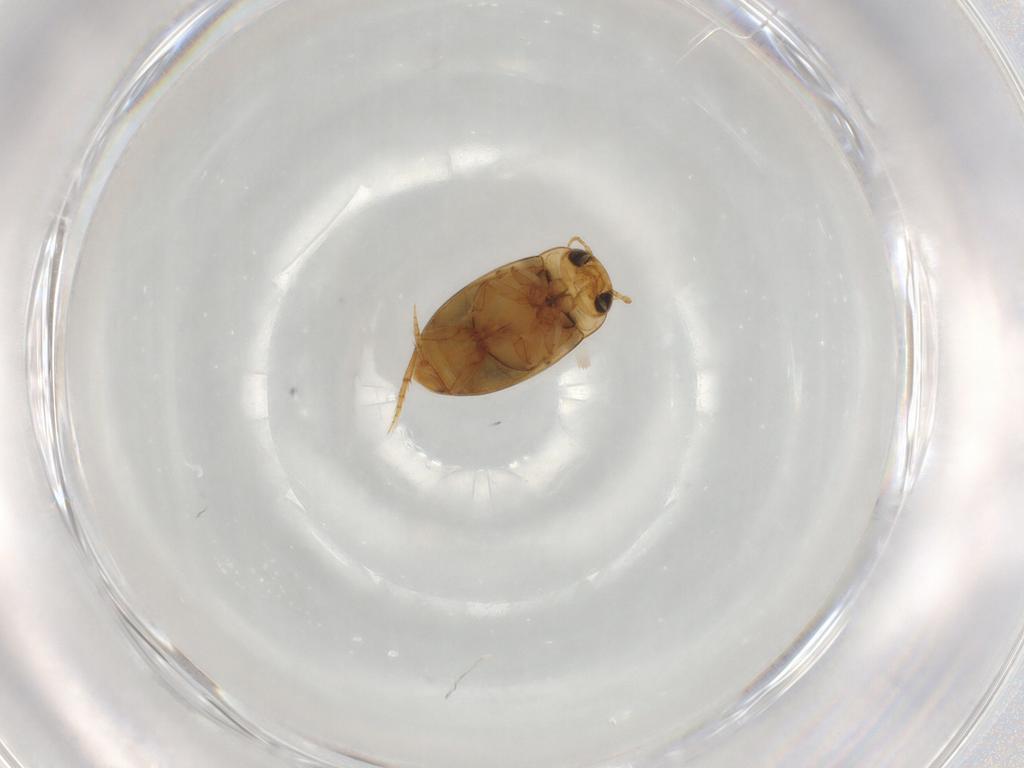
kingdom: Animalia
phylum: Arthropoda
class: Insecta
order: Coleoptera
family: Dytiscidae
